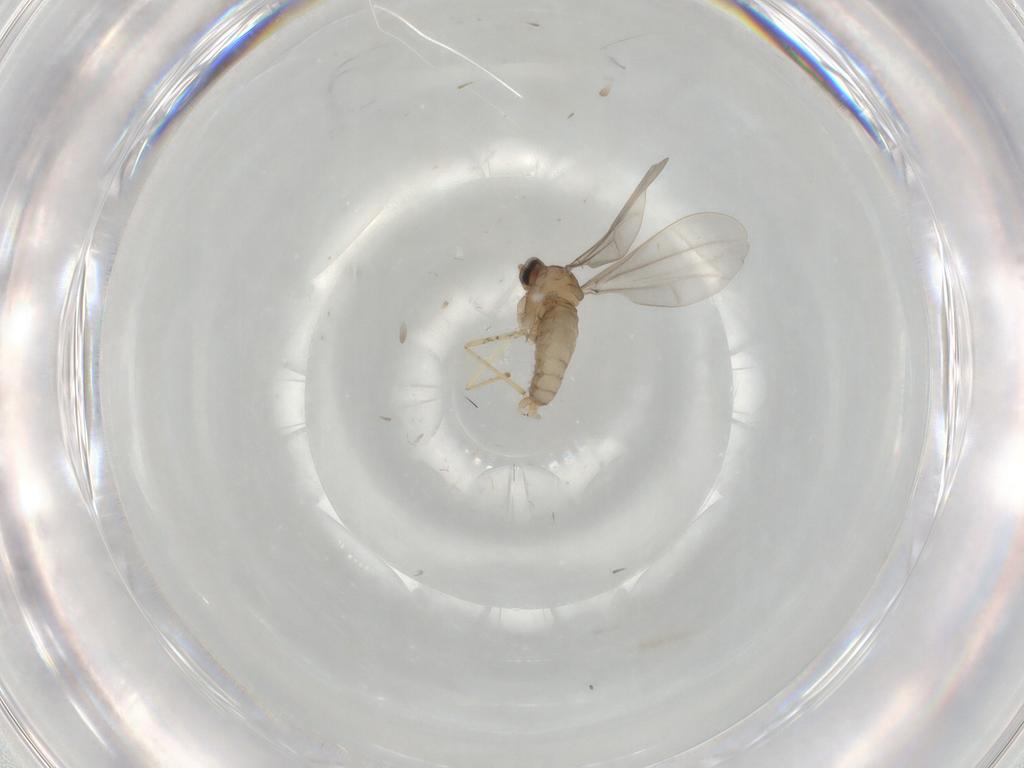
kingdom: Animalia
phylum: Arthropoda
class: Insecta
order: Diptera
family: Cecidomyiidae
